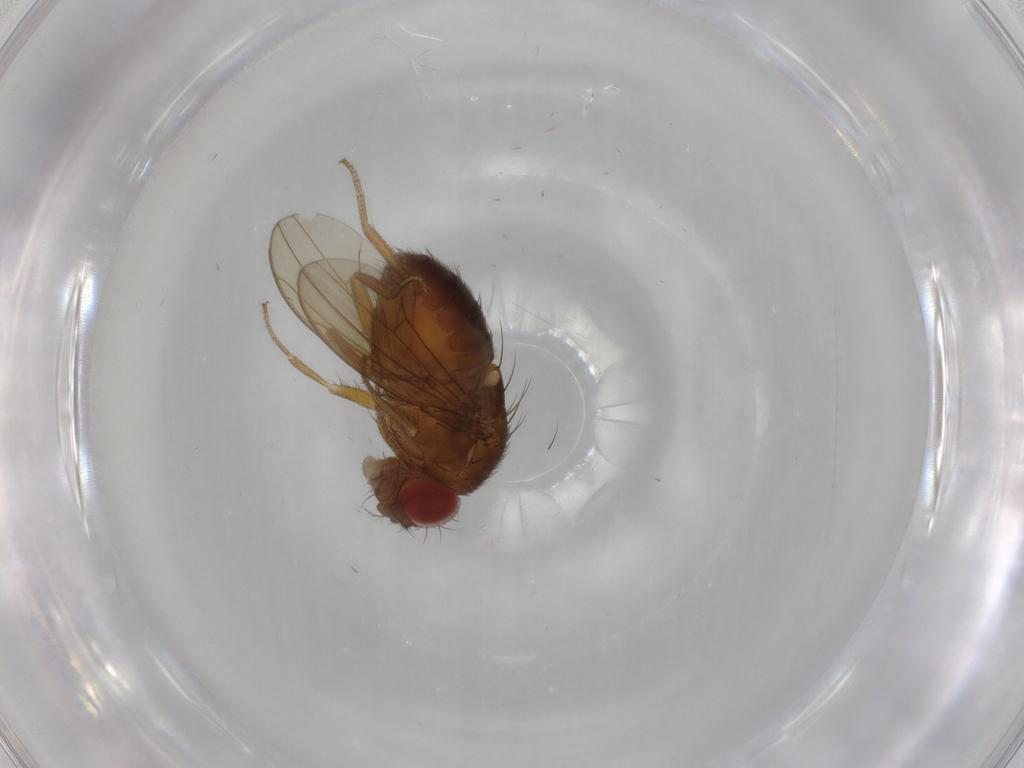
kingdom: Animalia
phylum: Arthropoda
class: Insecta
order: Diptera
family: Drosophilidae
